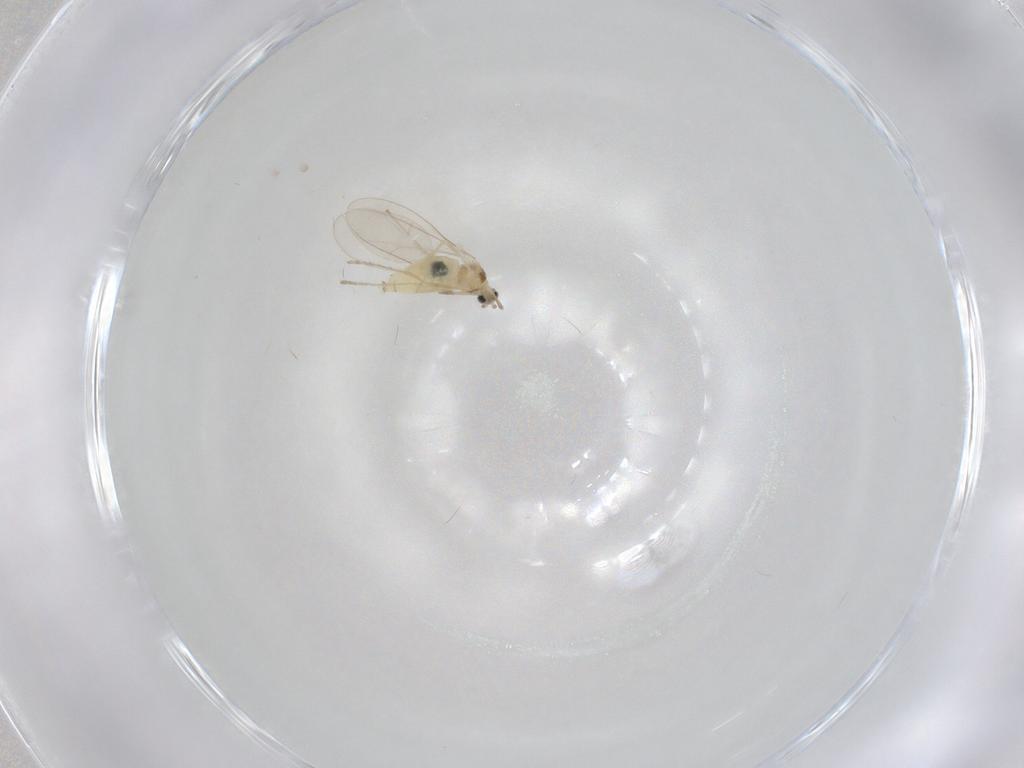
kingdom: Animalia
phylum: Arthropoda
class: Insecta
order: Diptera
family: Cecidomyiidae
